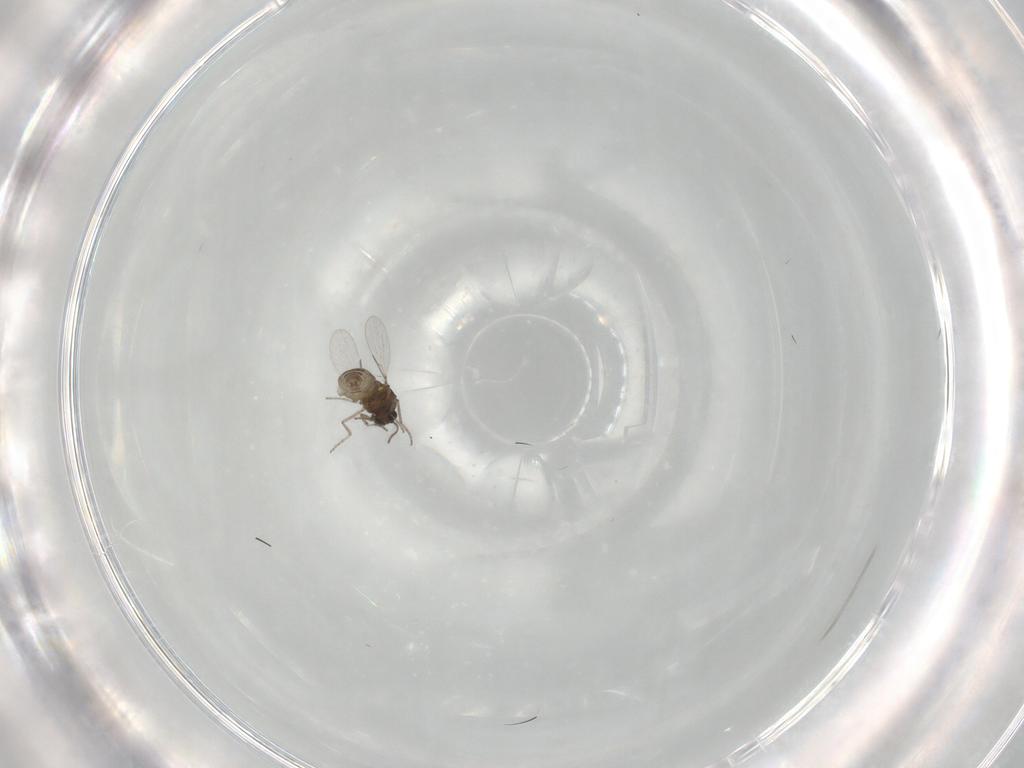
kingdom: Animalia
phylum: Arthropoda
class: Insecta
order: Diptera
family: Ceratopogonidae
